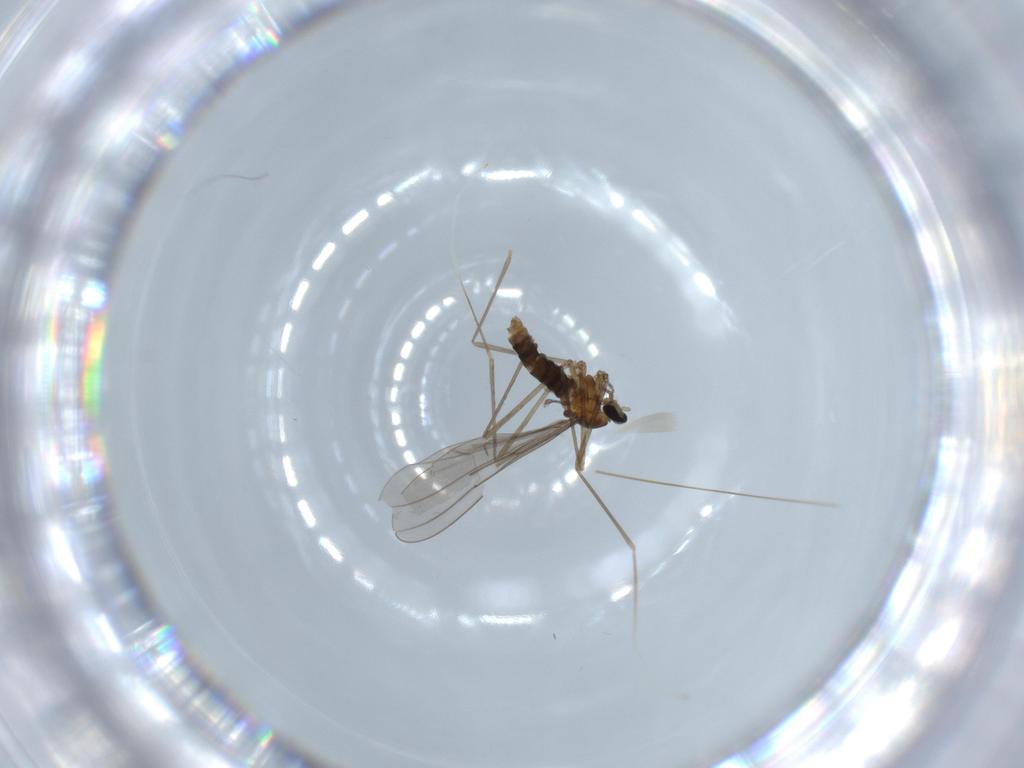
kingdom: Animalia
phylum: Arthropoda
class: Insecta
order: Diptera
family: Cecidomyiidae
